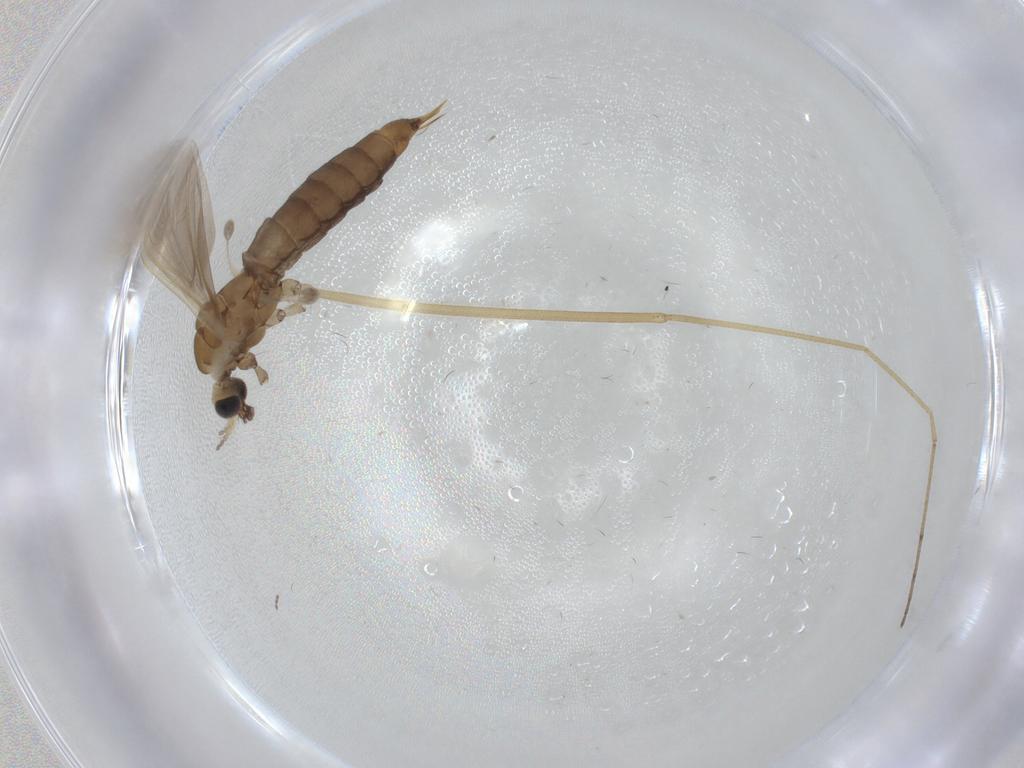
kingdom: Animalia
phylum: Arthropoda
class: Insecta
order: Diptera
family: Limoniidae
